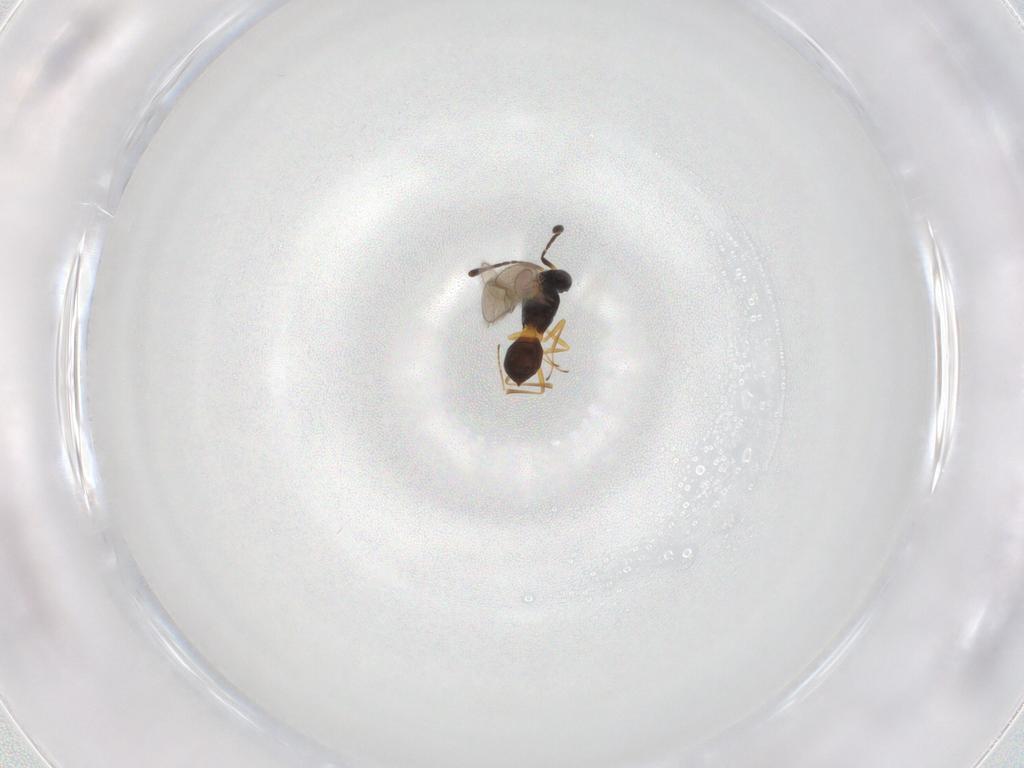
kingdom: Animalia
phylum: Arthropoda
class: Insecta
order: Hymenoptera
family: Scelionidae
